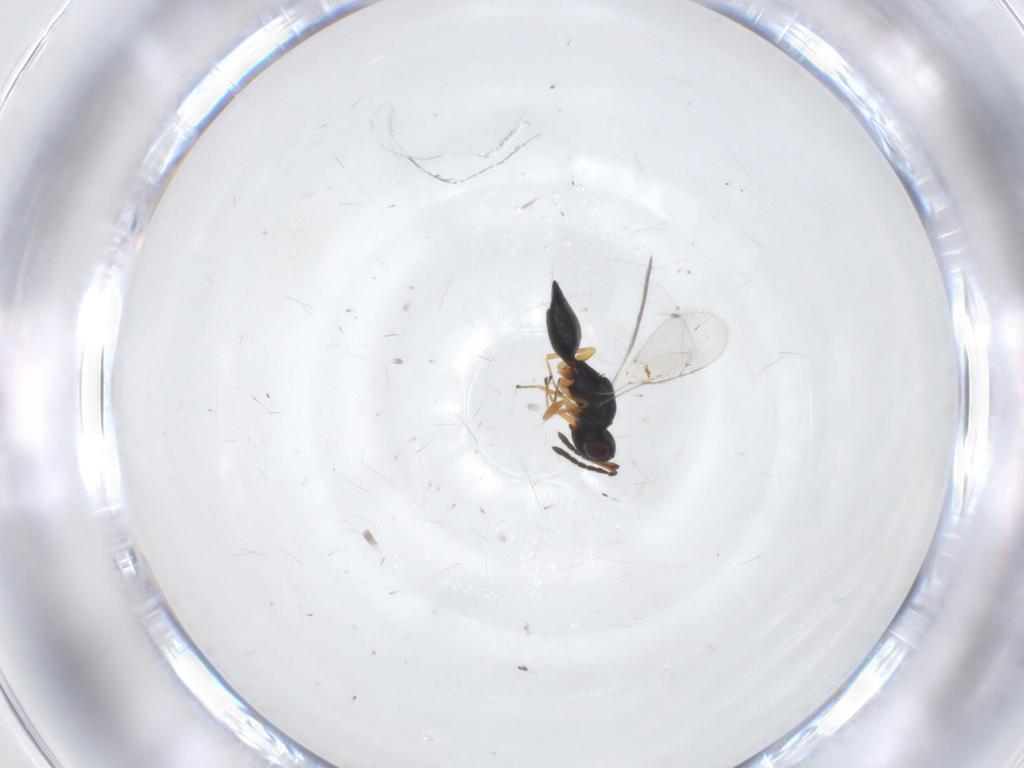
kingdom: Animalia
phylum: Arthropoda
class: Insecta
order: Hymenoptera
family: Pteromalidae
